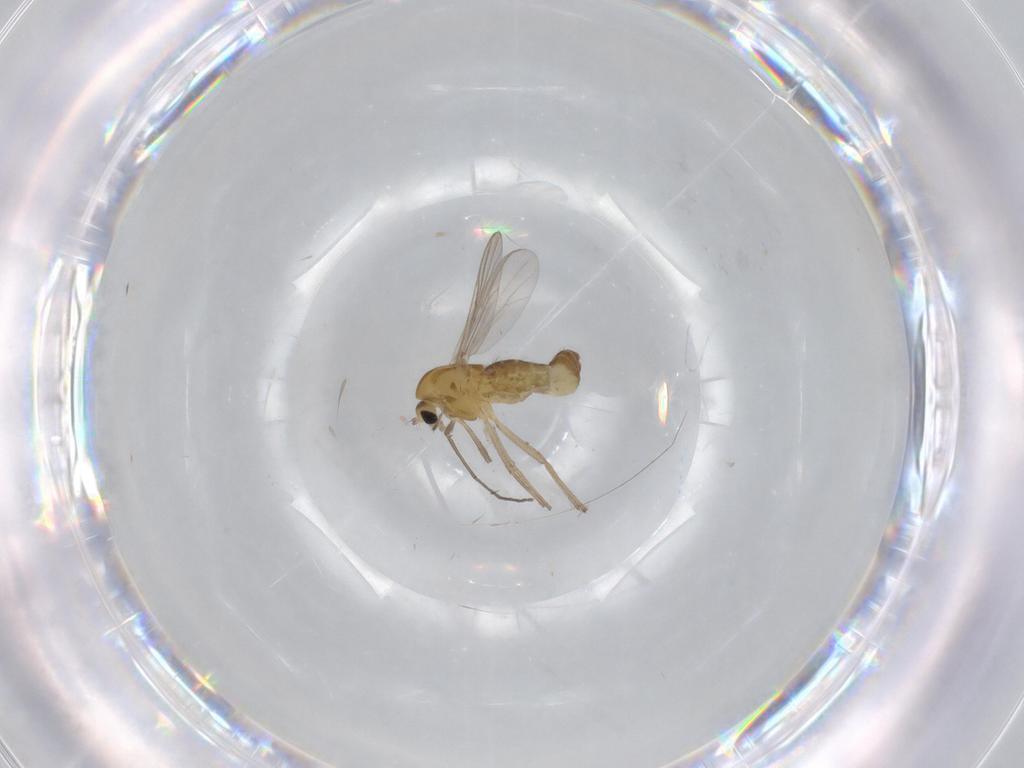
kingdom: Animalia
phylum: Arthropoda
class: Insecta
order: Diptera
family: Chironomidae
